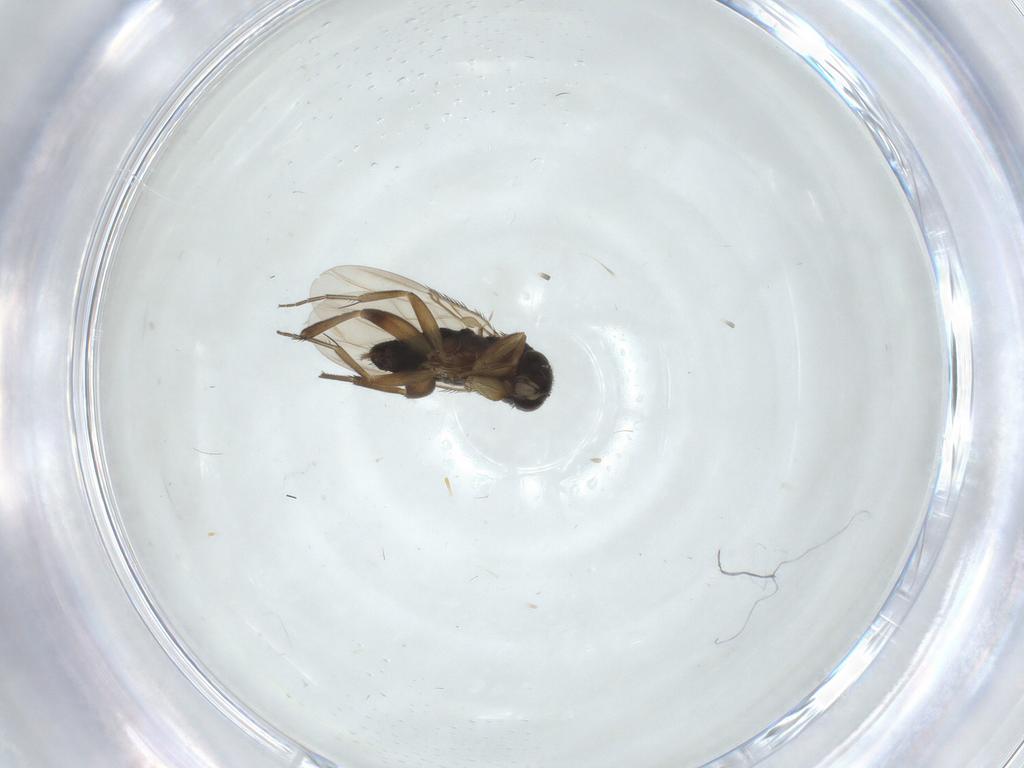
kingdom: Animalia
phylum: Arthropoda
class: Insecta
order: Diptera
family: Phoridae
